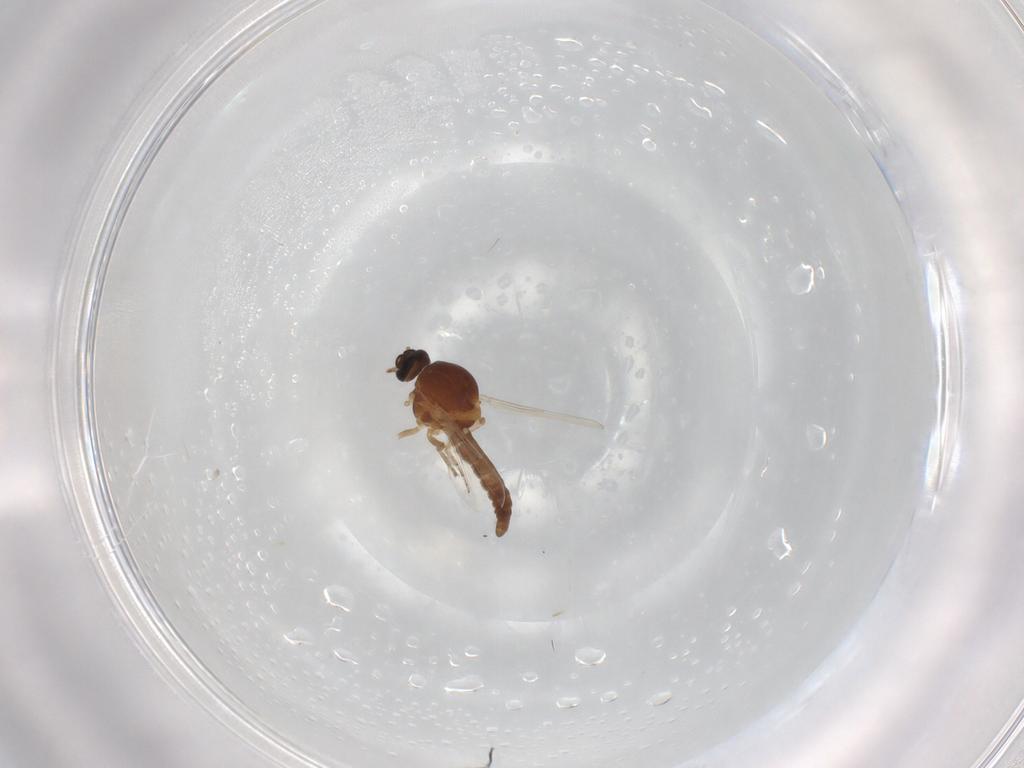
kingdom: Animalia
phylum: Arthropoda
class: Insecta
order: Diptera
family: Ceratopogonidae
